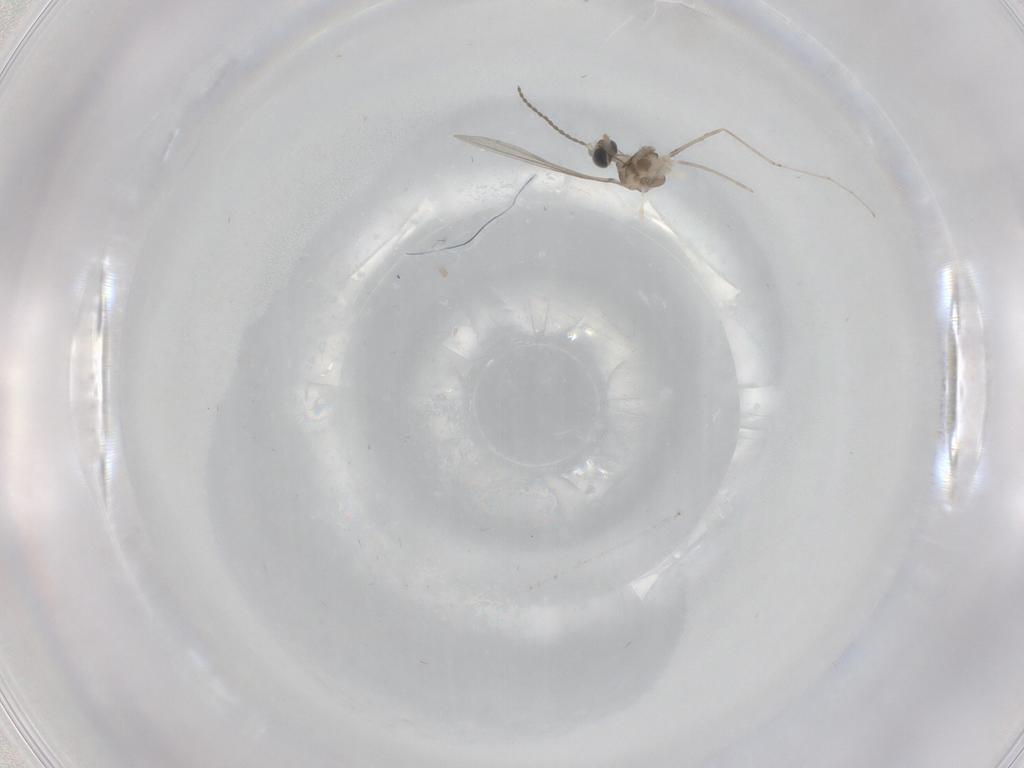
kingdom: Animalia
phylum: Arthropoda
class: Insecta
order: Diptera
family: Cecidomyiidae
